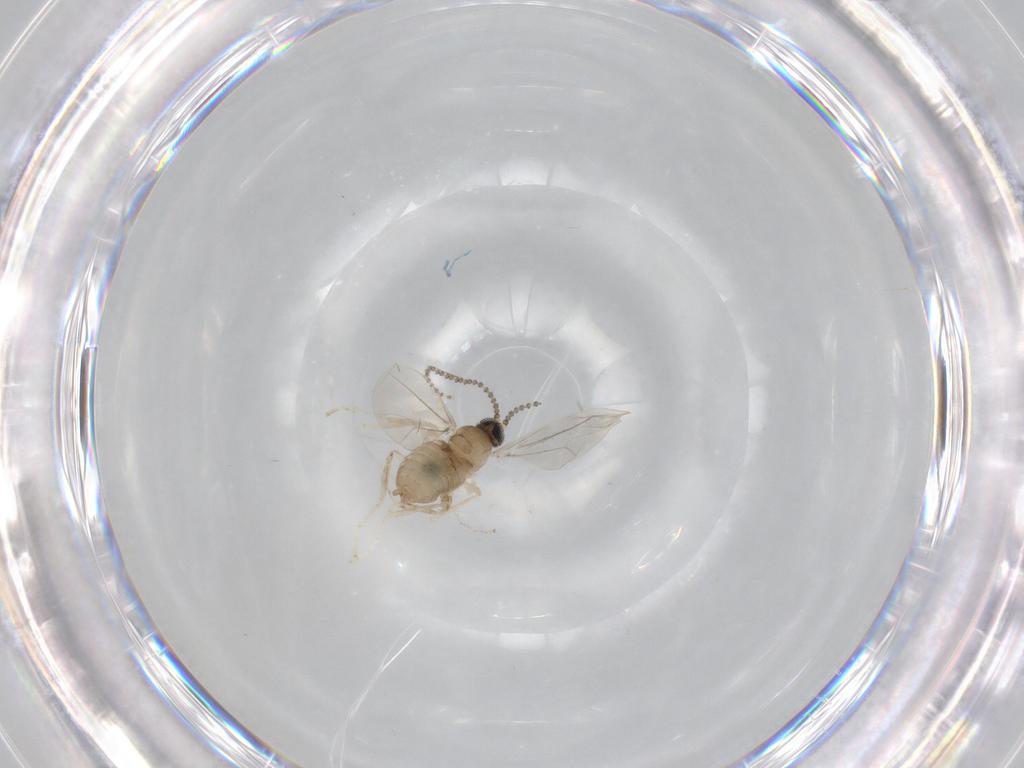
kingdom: Animalia
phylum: Arthropoda
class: Insecta
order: Diptera
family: Cecidomyiidae
